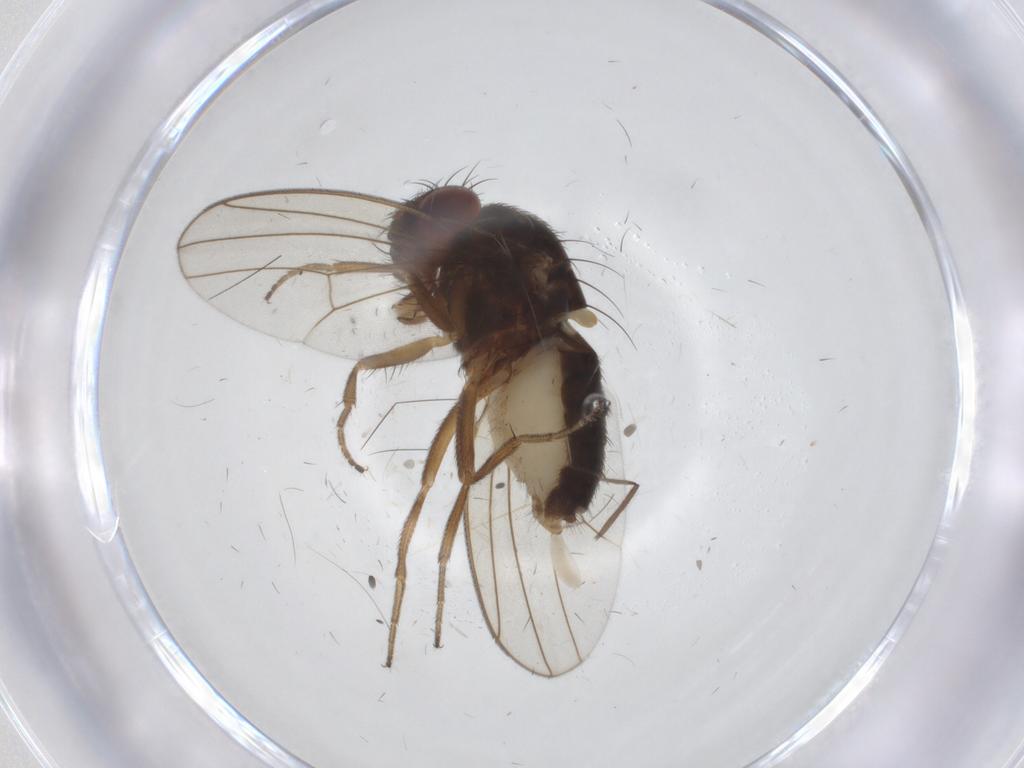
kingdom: Animalia
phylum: Arthropoda
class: Insecta
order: Diptera
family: Drosophilidae
